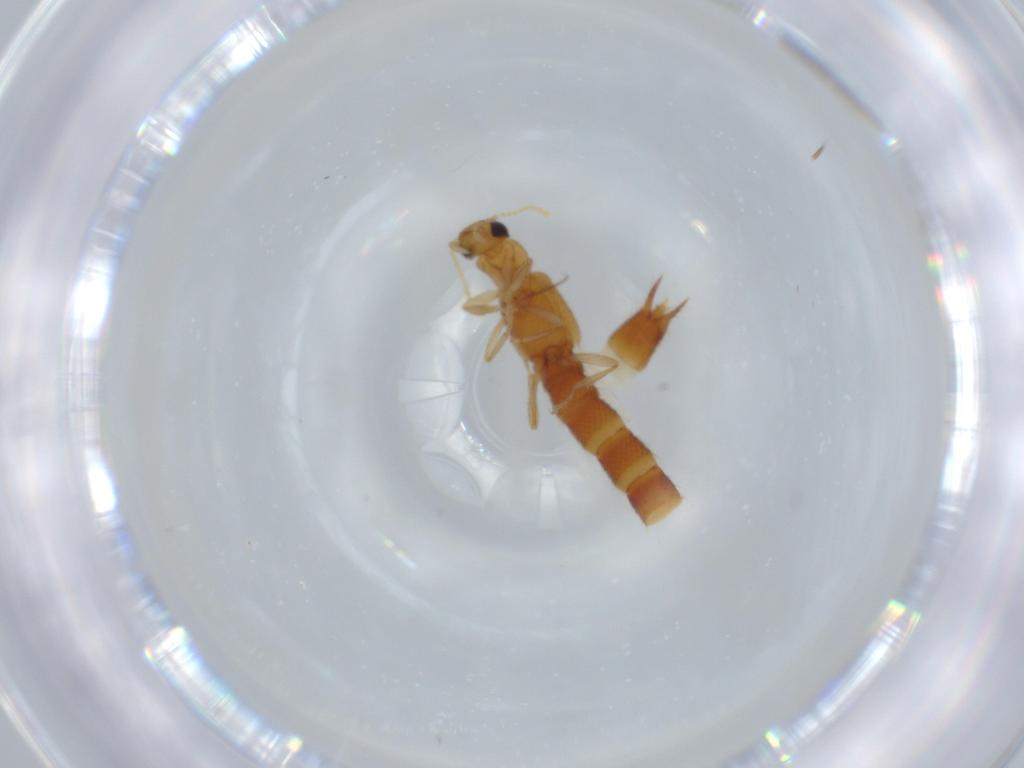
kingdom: Animalia
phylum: Arthropoda
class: Insecta
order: Coleoptera
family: Staphylinidae
